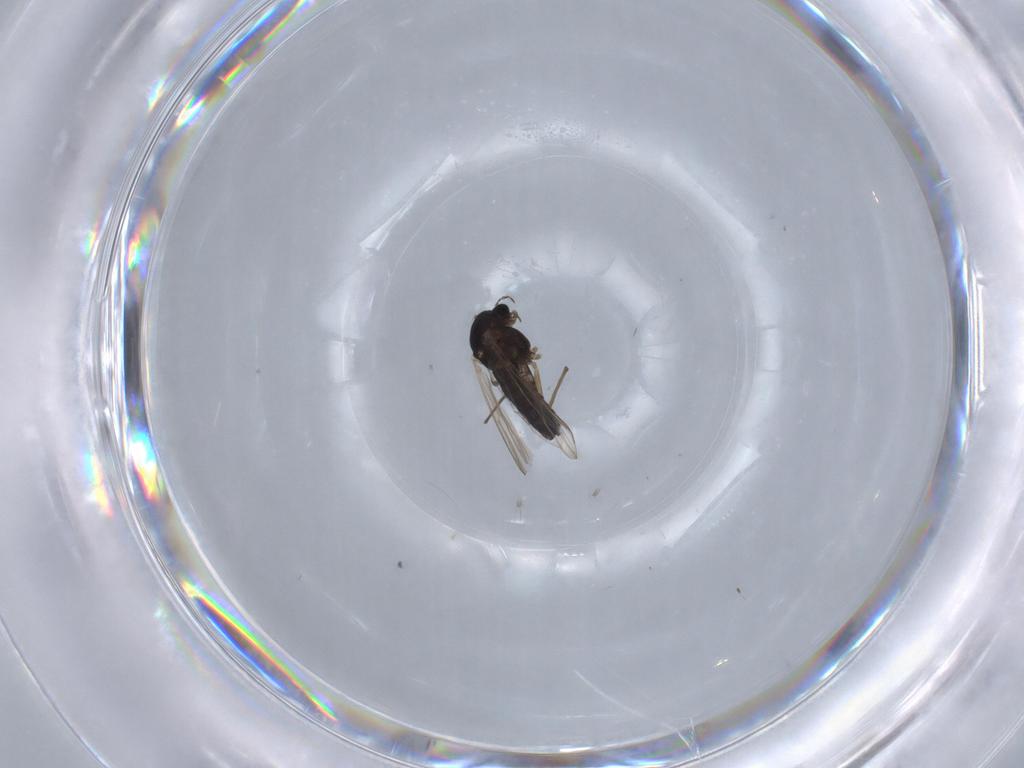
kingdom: Animalia
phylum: Arthropoda
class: Insecta
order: Diptera
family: Chironomidae
